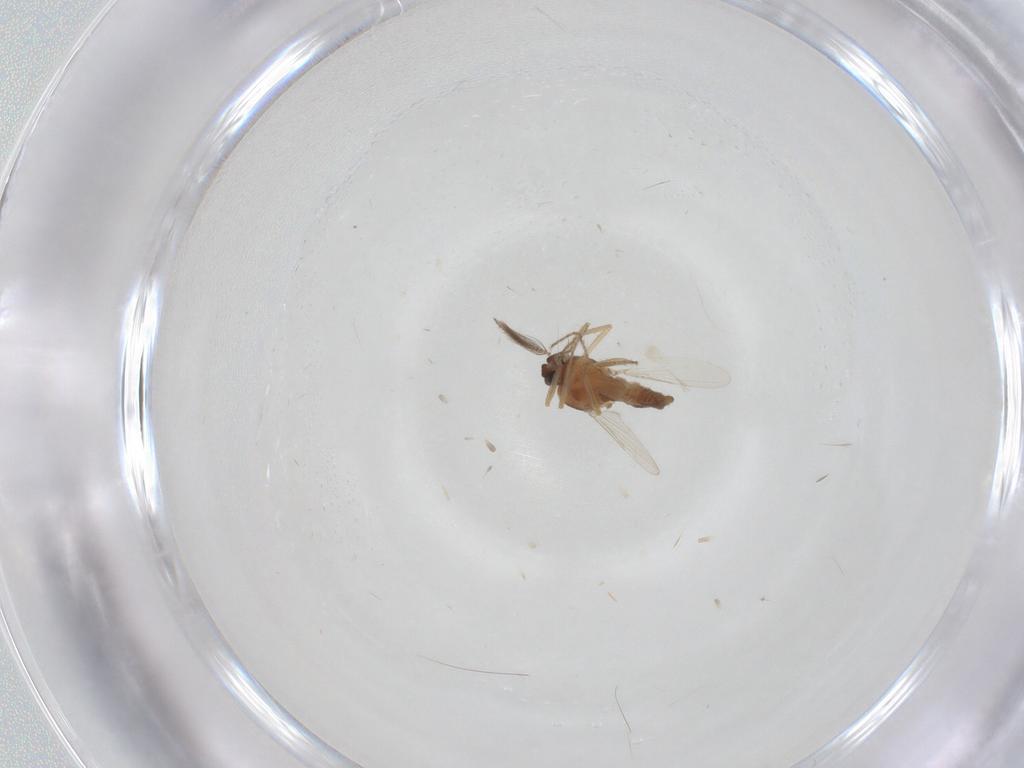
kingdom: Animalia
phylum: Arthropoda
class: Insecta
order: Diptera
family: Ceratopogonidae
